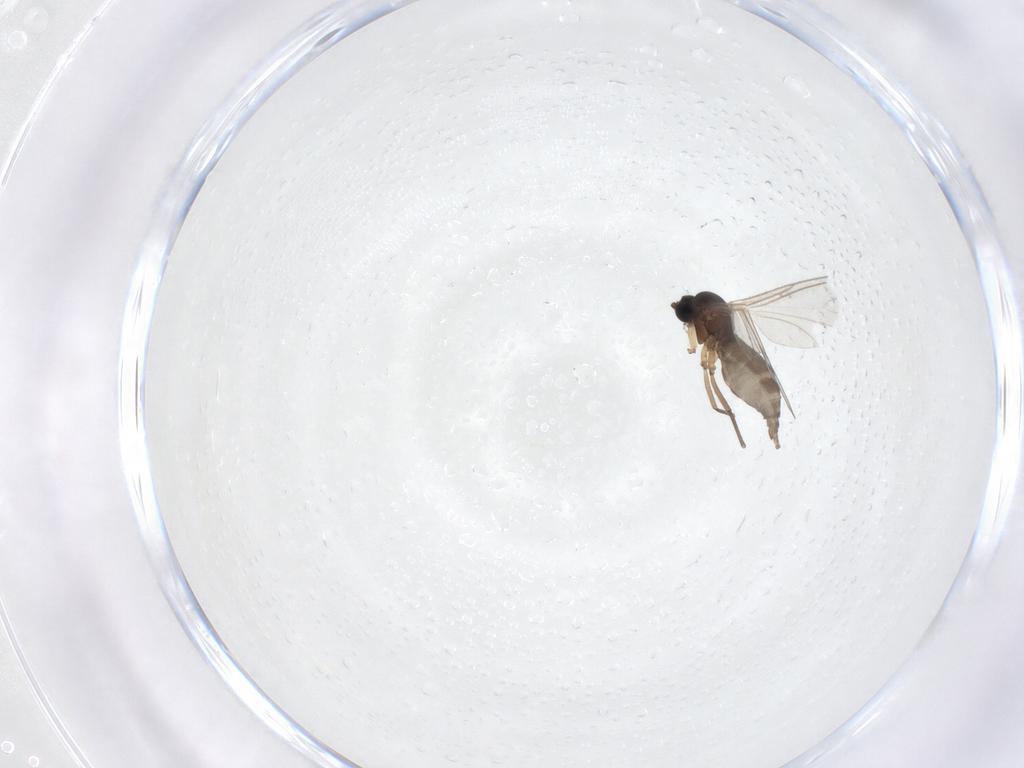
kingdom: Animalia
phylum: Arthropoda
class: Insecta
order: Diptera
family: Sciaridae
